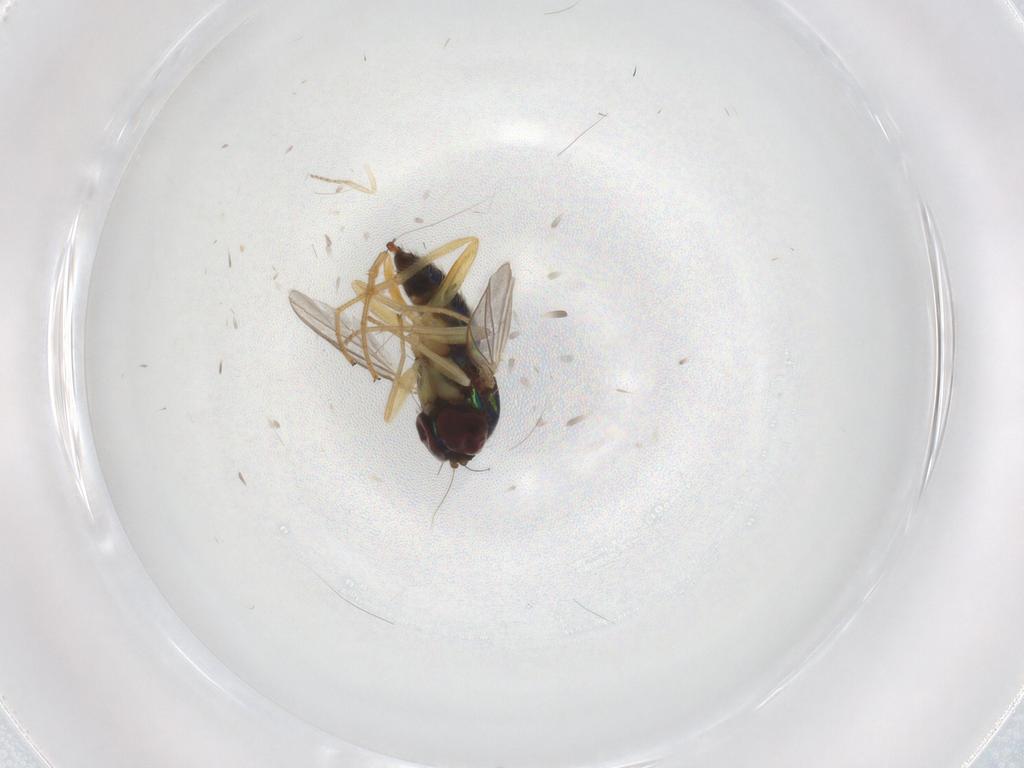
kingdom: Animalia
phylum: Arthropoda
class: Insecta
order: Diptera
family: Dolichopodidae
